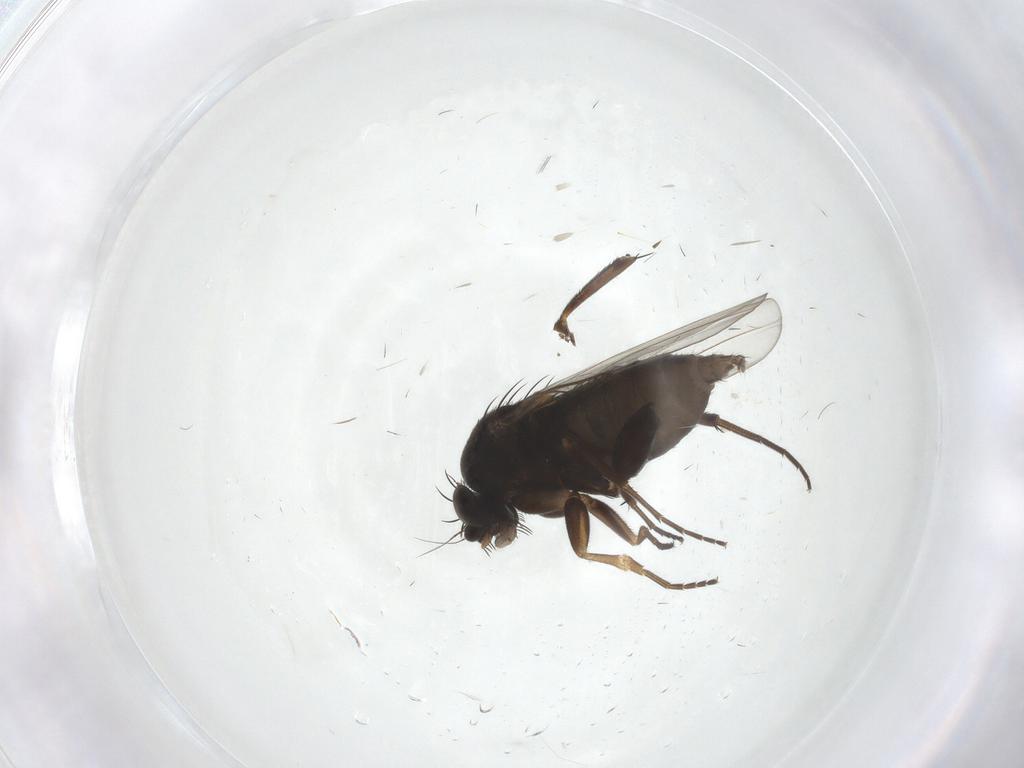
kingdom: Animalia
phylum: Arthropoda
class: Insecta
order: Diptera
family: Phoridae
